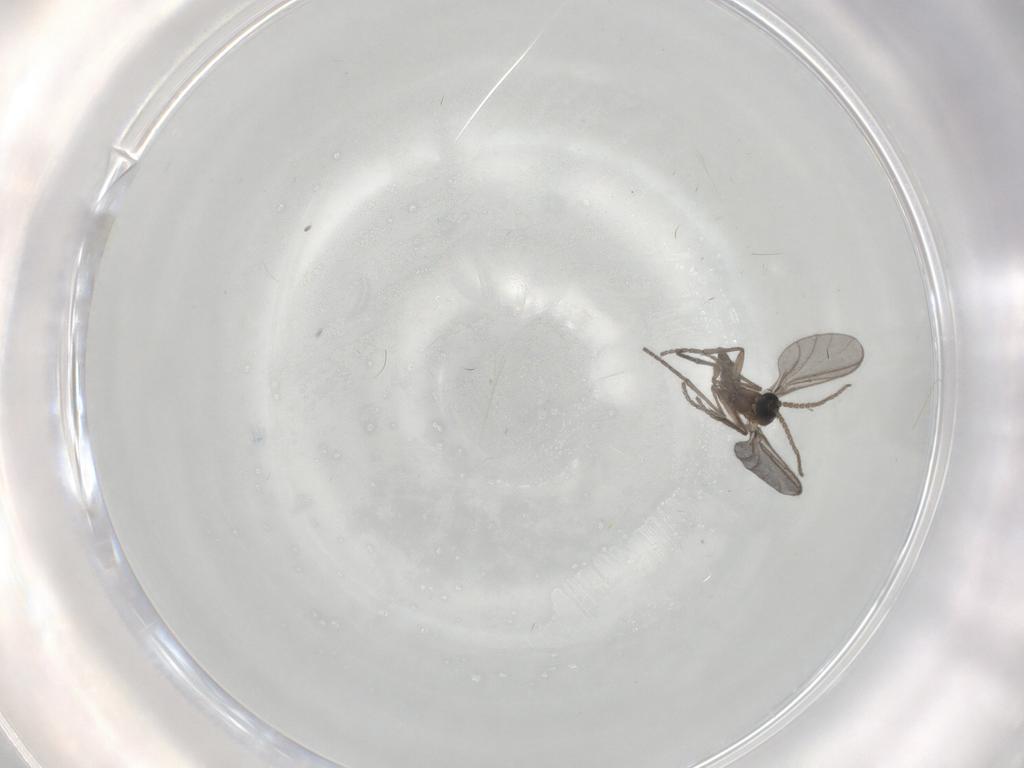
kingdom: Animalia
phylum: Arthropoda
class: Insecta
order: Diptera
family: Sciaridae
